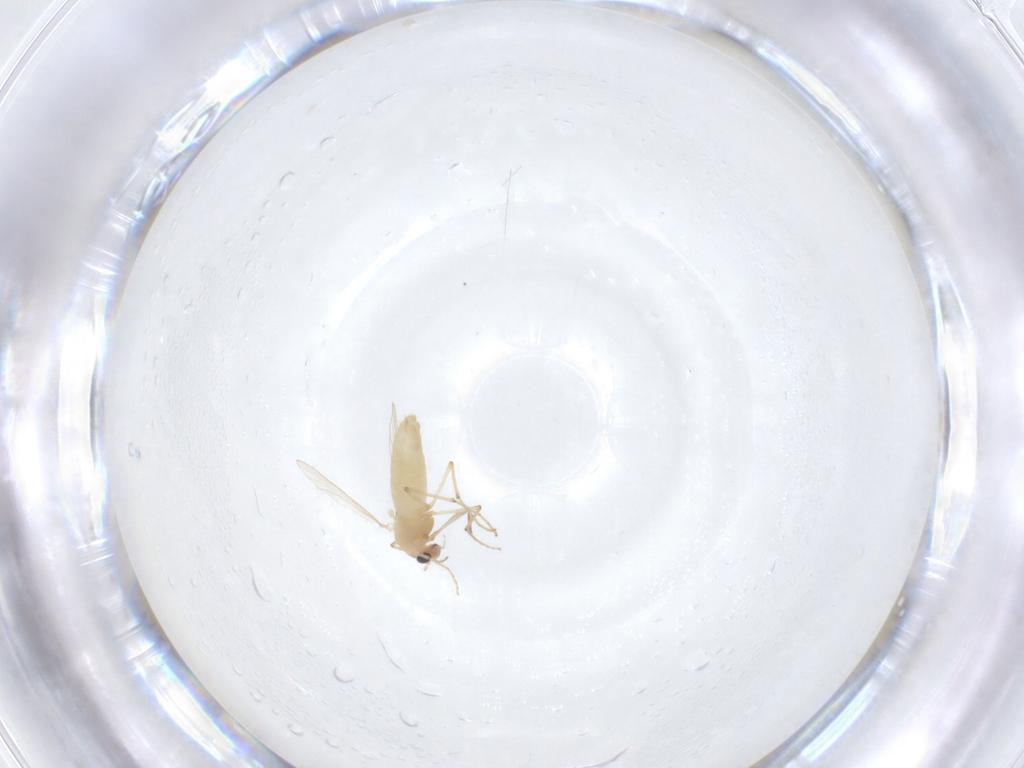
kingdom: Animalia
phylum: Arthropoda
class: Insecta
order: Diptera
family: Chironomidae
